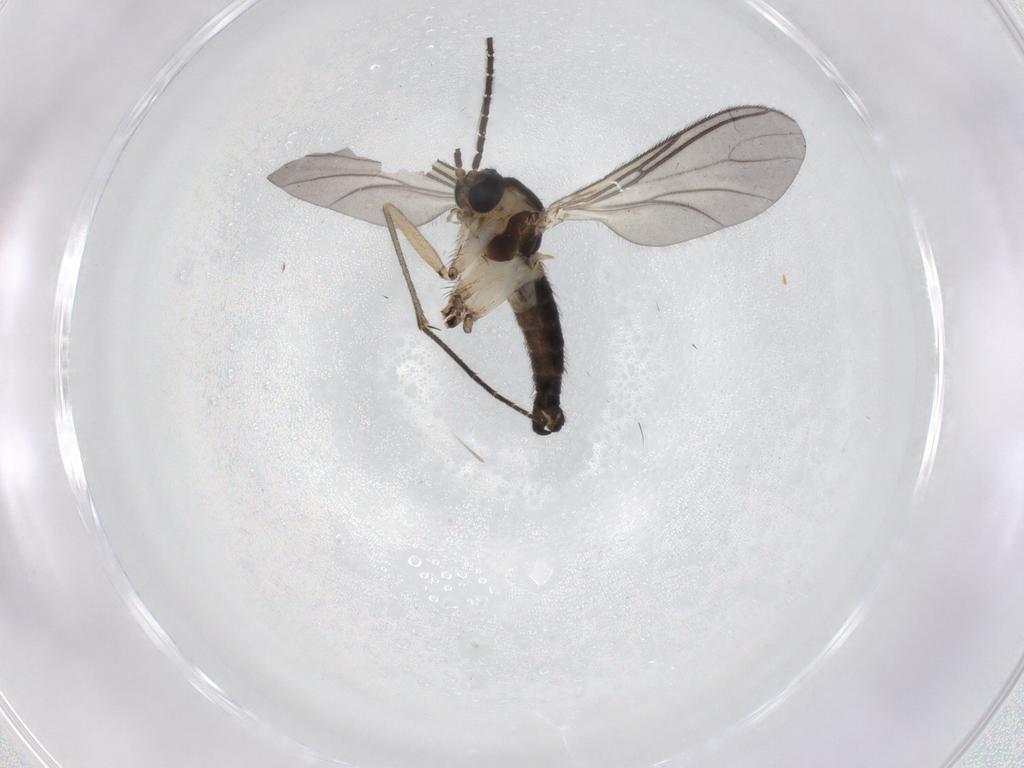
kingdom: Animalia
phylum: Arthropoda
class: Insecta
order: Diptera
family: Sciaridae
